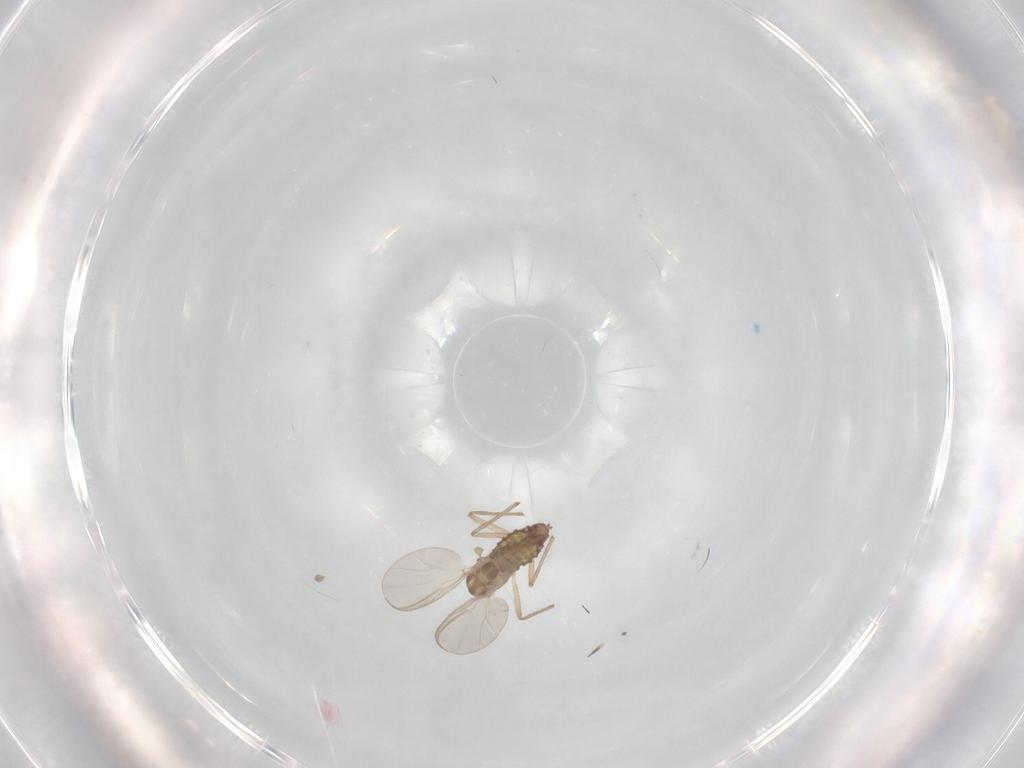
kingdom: Animalia
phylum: Arthropoda
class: Insecta
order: Diptera
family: Chironomidae
